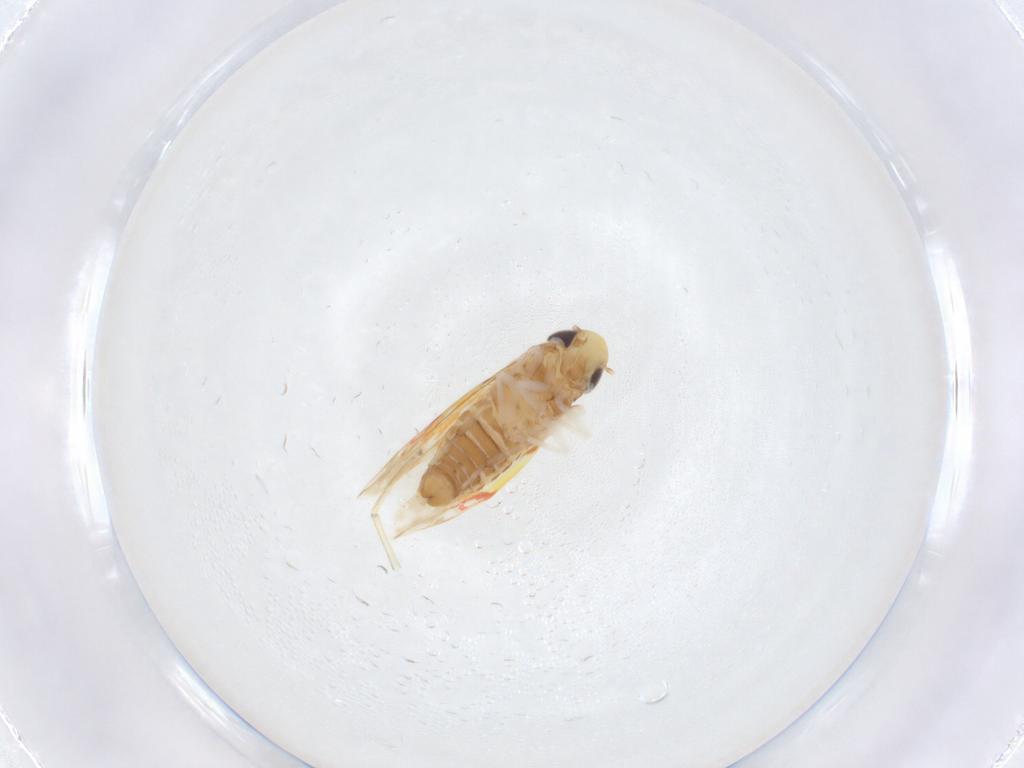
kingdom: Animalia
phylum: Arthropoda
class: Insecta
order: Hemiptera
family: Cicadellidae
